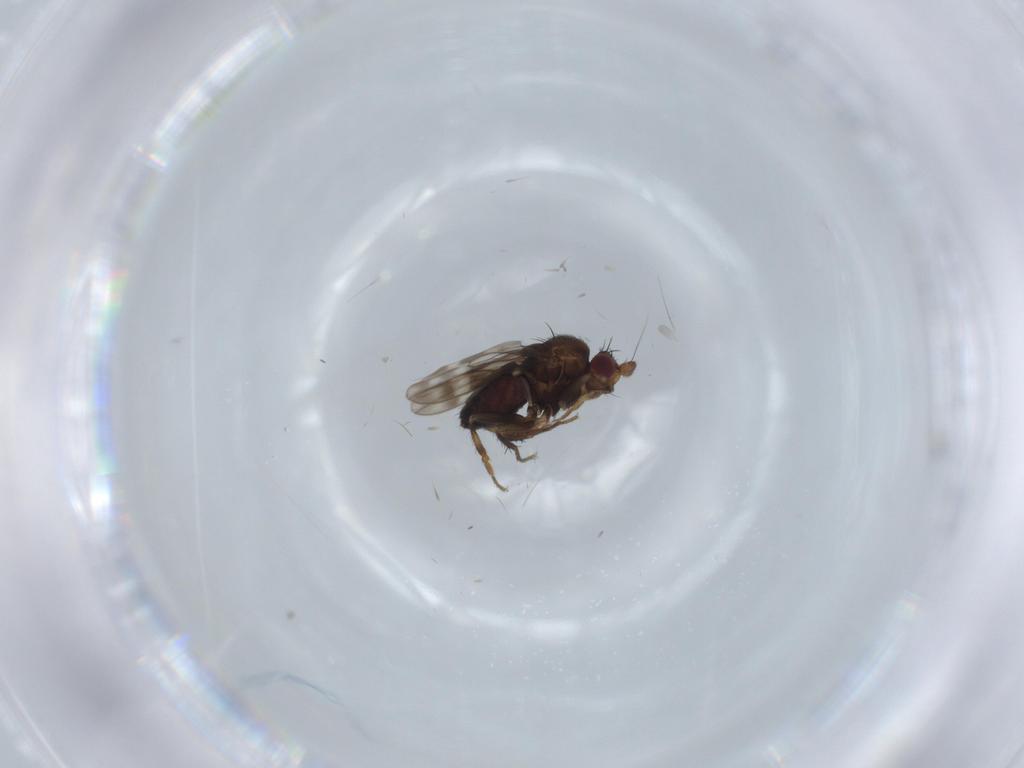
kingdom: Animalia
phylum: Arthropoda
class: Insecta
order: Diptera
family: Sphaeroceridae
